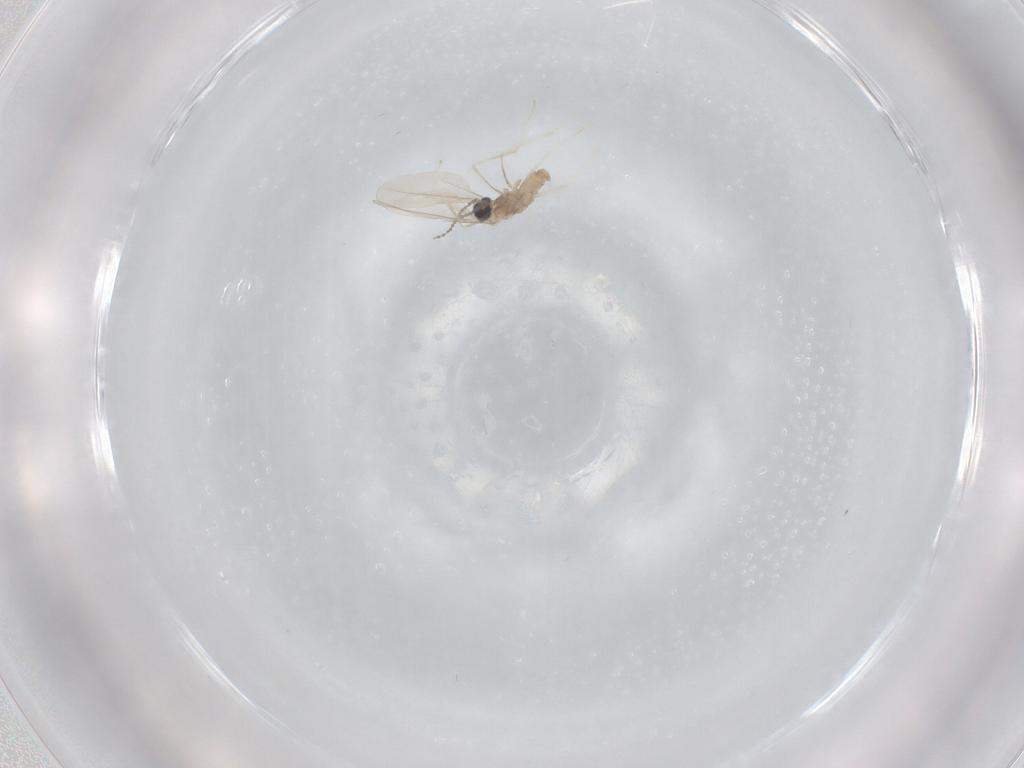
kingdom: Animalia
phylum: Arthropoda
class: Insecta
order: Diptera
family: Cecidomyiidae
